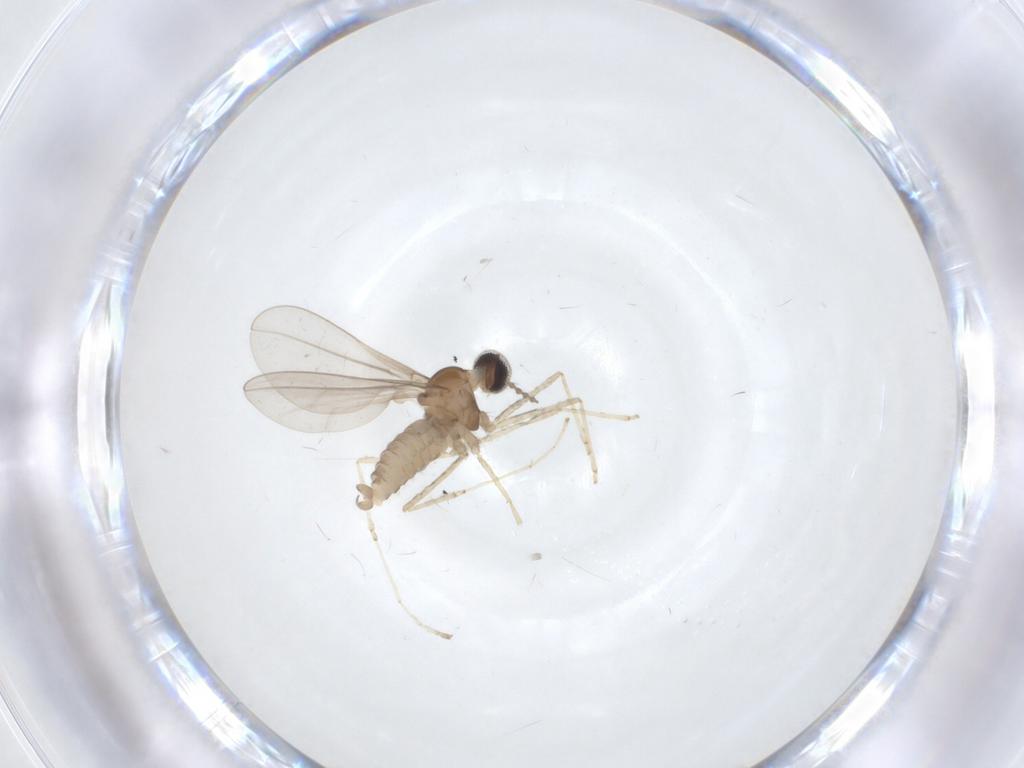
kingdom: Animalia
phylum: Arthropoda
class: Insecta
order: Diptera
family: Cecidomyiidae
